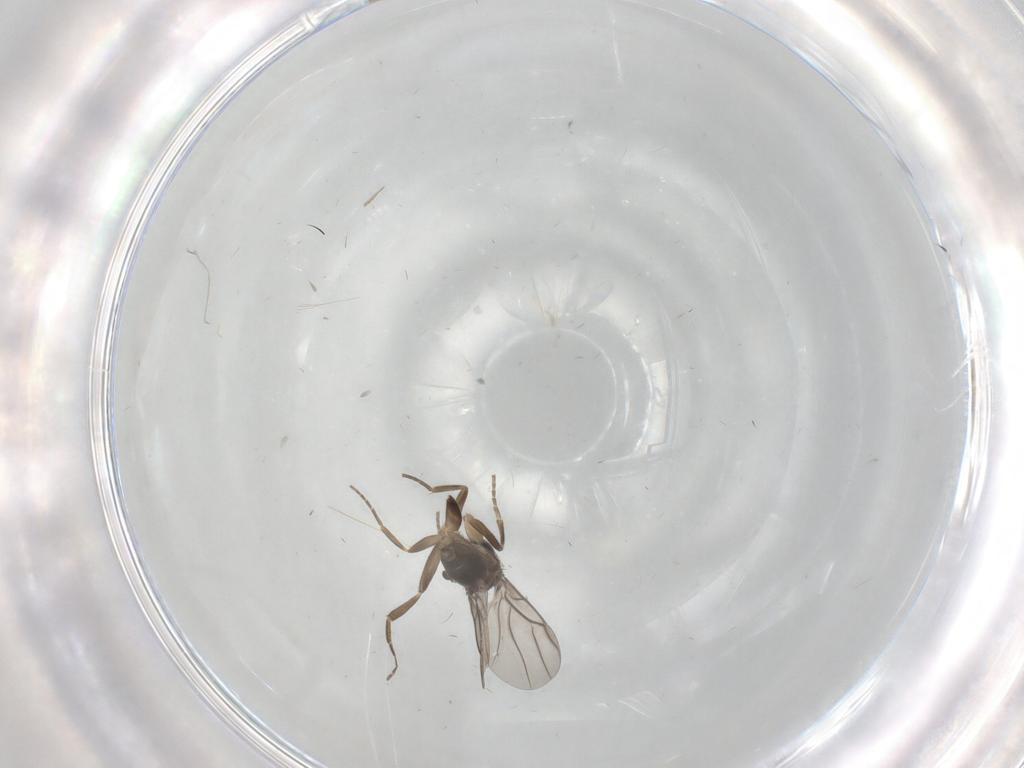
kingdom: Animalia
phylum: Arthropoda
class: Insecta
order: Diptera
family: Phoridae
